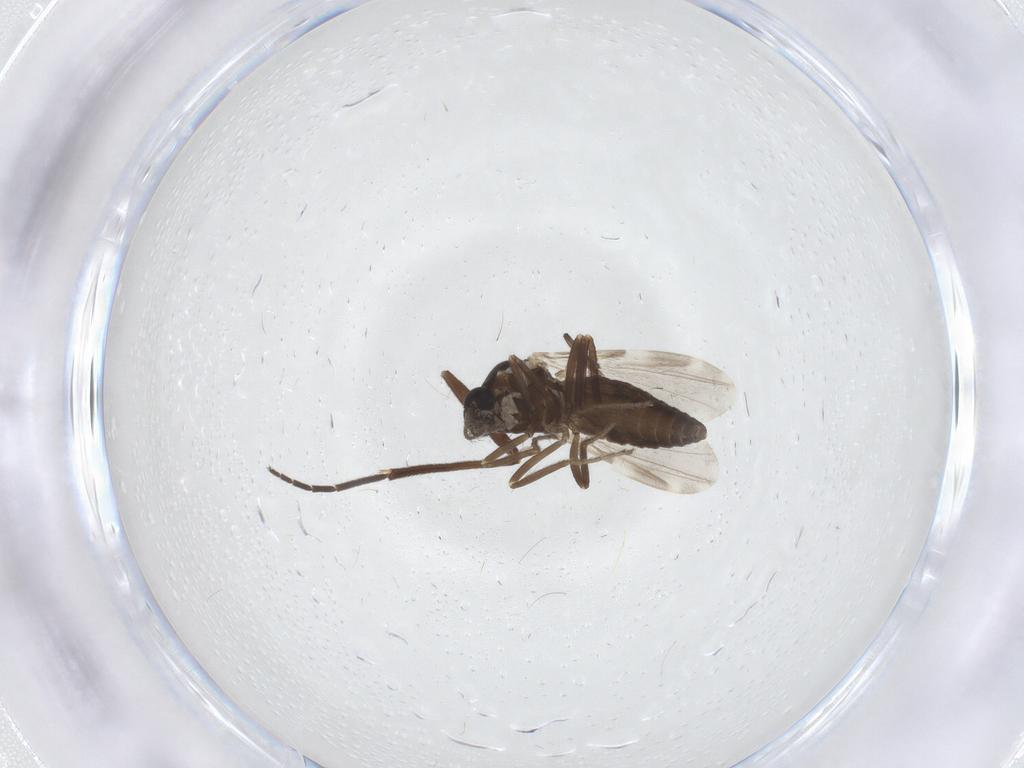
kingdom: Animalia
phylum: Arthropoda
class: Insecta
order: Diptera
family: Ceratopogonidae
